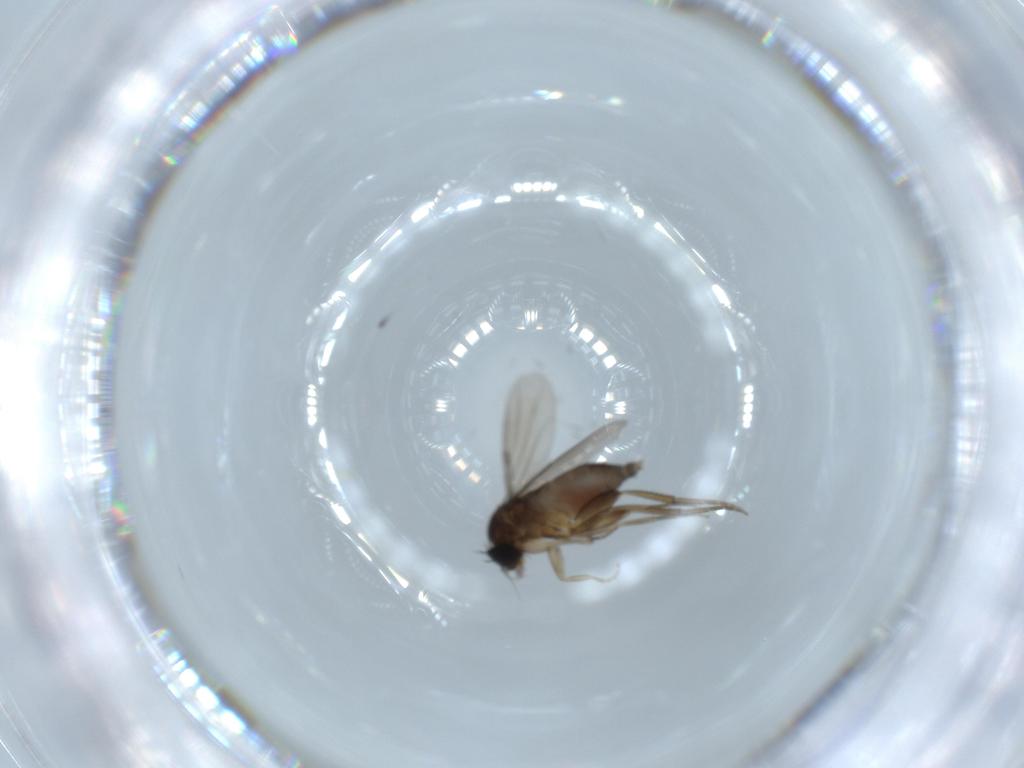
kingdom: Animalia
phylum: Arthropoda
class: Insecta
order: Diptera
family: Phoridae
